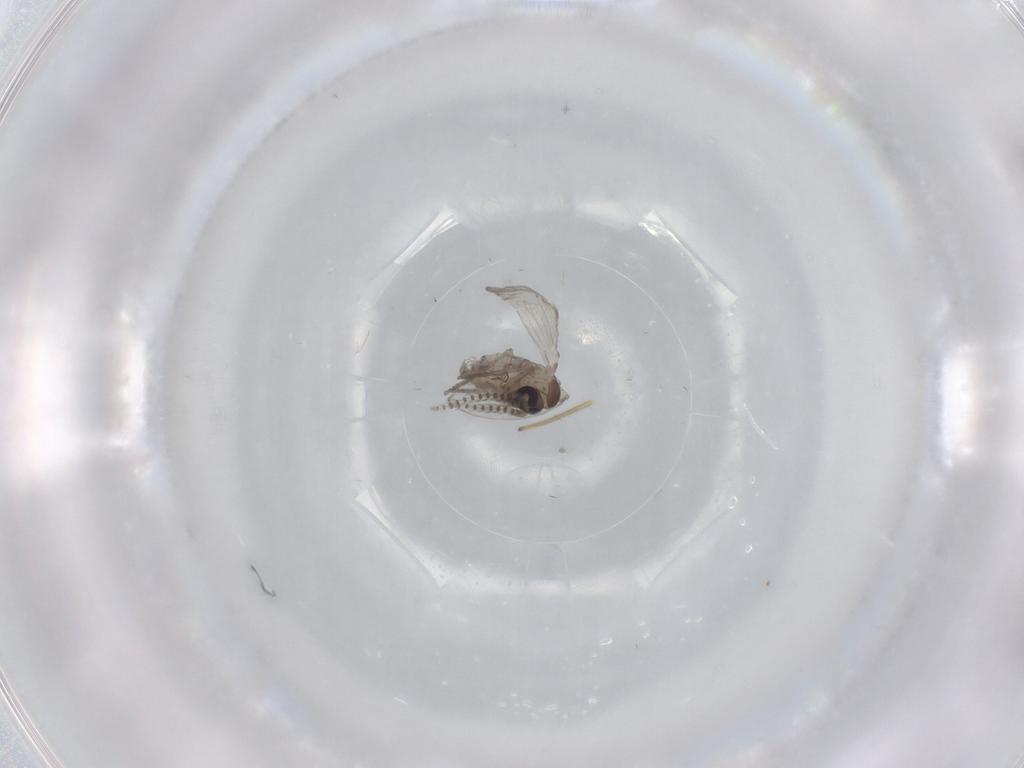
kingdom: Animalia
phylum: Arthropoda
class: Insecta
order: Diptera
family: Psychodidae
